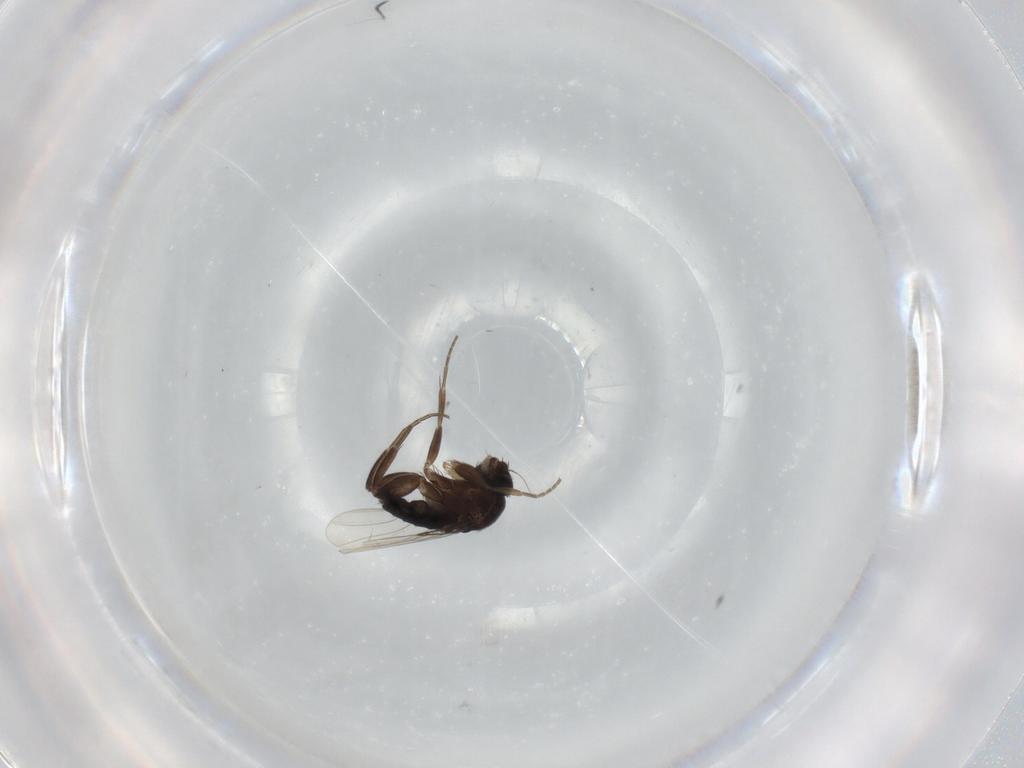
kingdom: Animalia
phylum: Arthropoda
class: Insecta
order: Diptera
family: Phoridae
